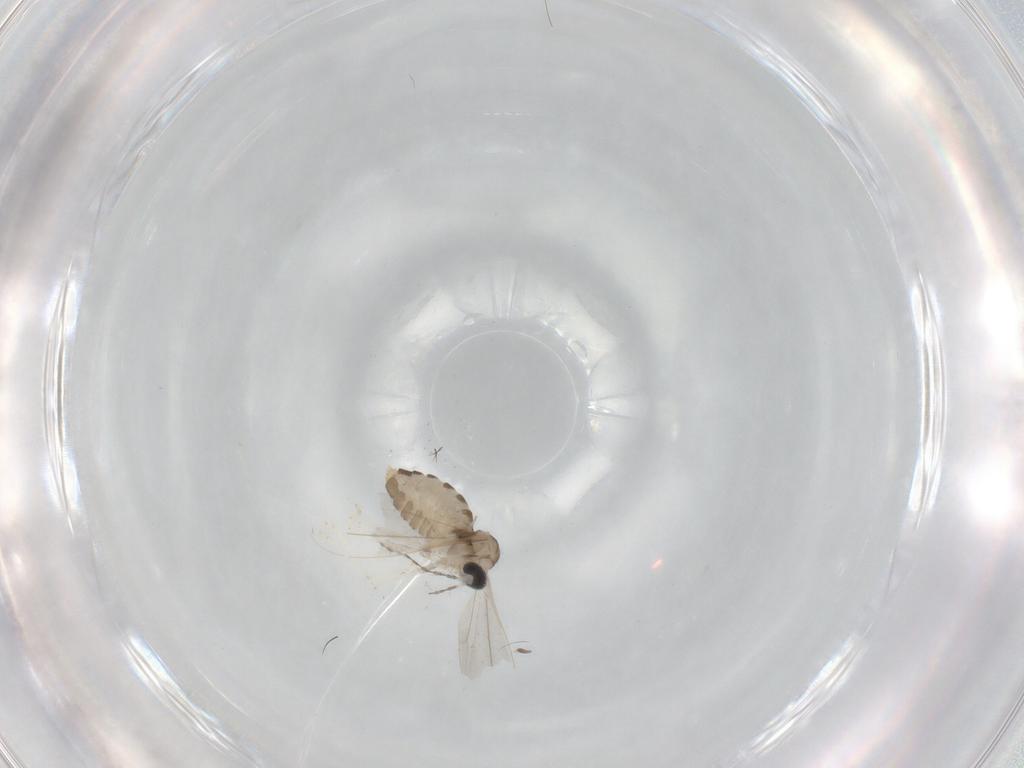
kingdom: Animalia
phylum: Arthropoda
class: Insecta
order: Diptera
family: Cecidomyiidae
